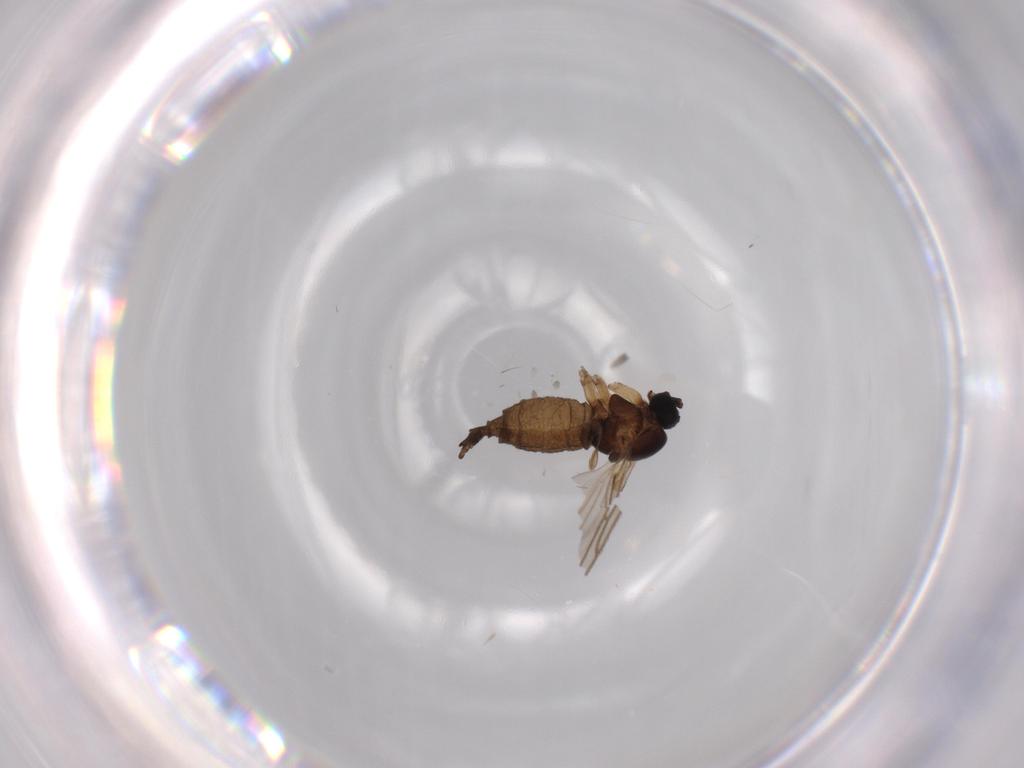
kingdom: Animalia
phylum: Arthropoda
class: Insecta
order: Diptera
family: Sciaridae
